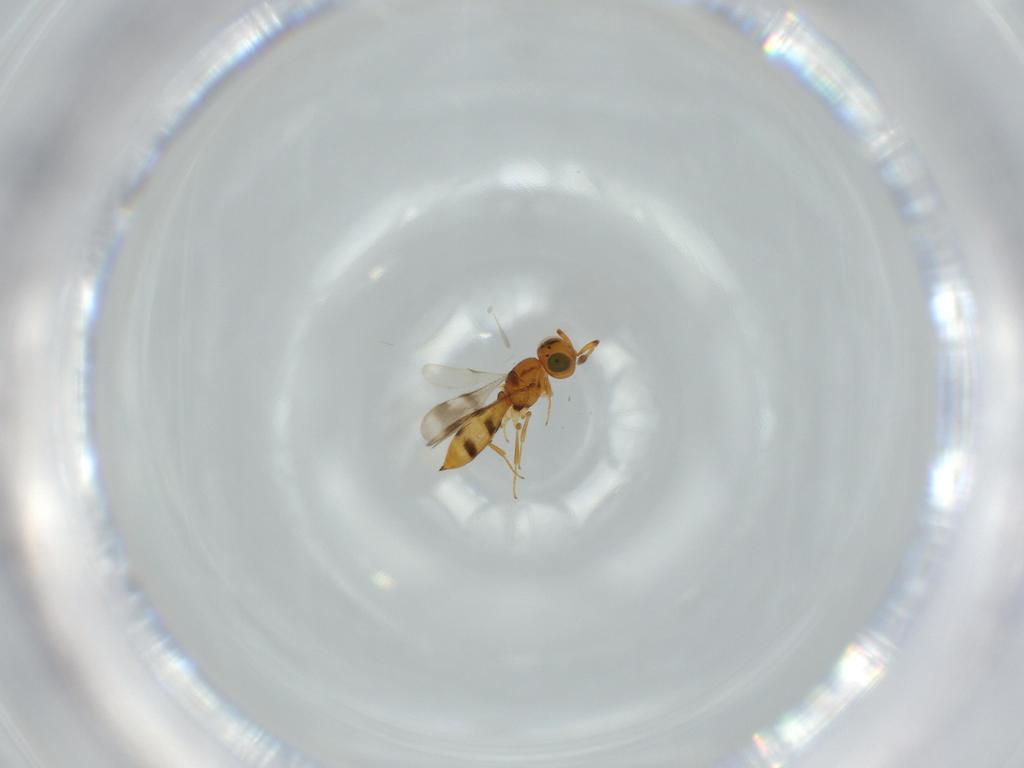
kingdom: Animalia
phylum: Arthropoda
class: Insecta
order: Hymenoptera
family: Scelionidae
